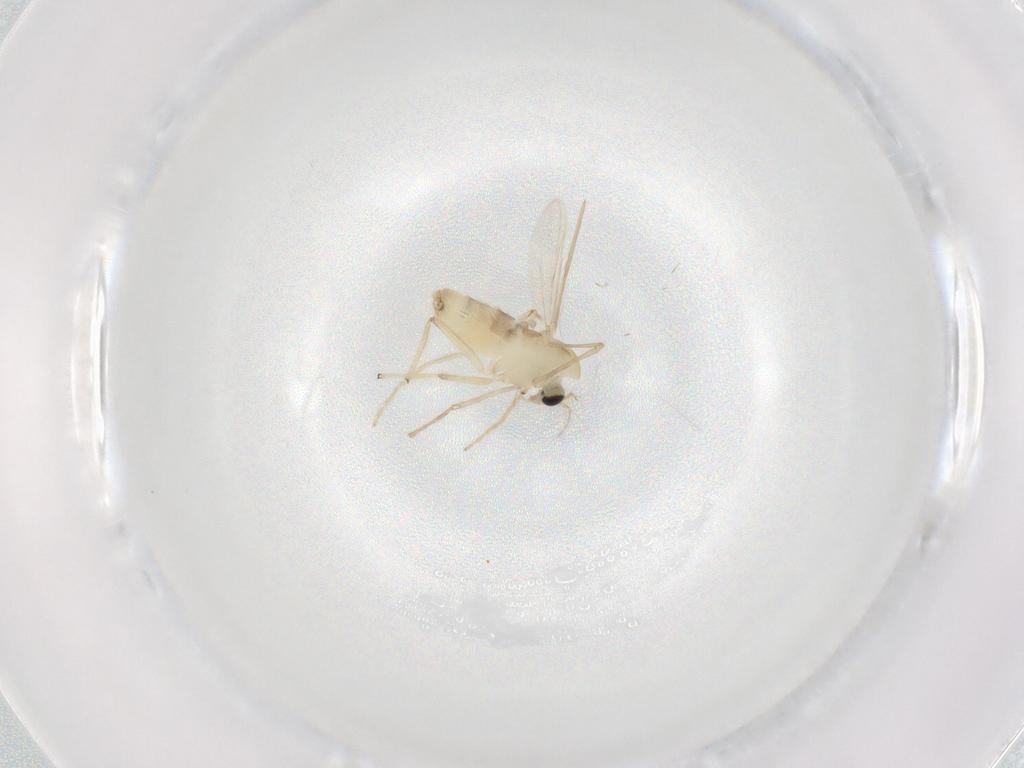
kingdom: Animalia
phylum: Arthropoda
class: Insecta
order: Diptera
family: Chironomidae
